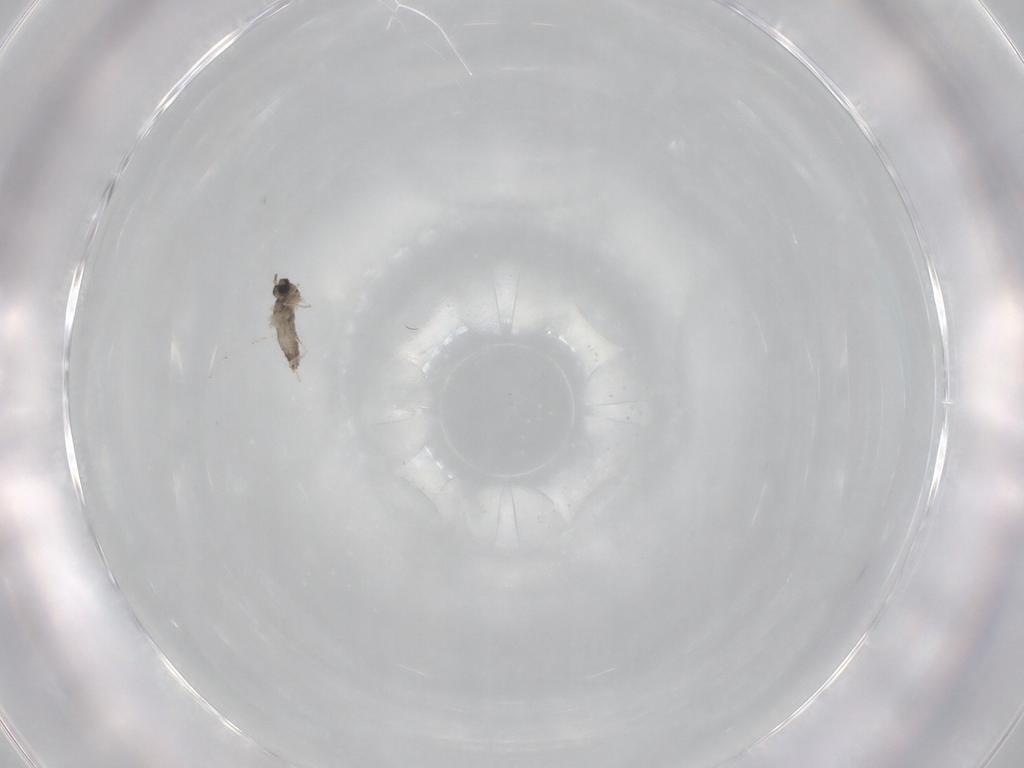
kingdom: Animalia
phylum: Arthropoda
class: Insecta
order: Diptera
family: Cecidomyiidae
